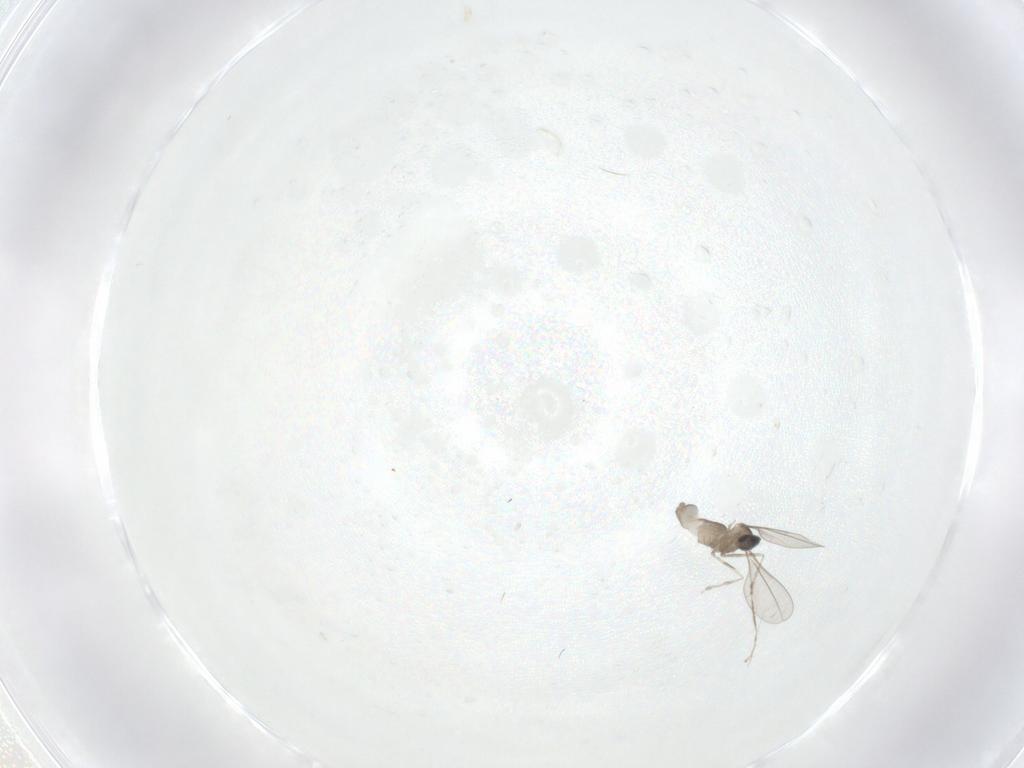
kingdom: Animalia
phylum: Arthropoda
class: Insecta
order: Diptera
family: Cecidomyiidae
